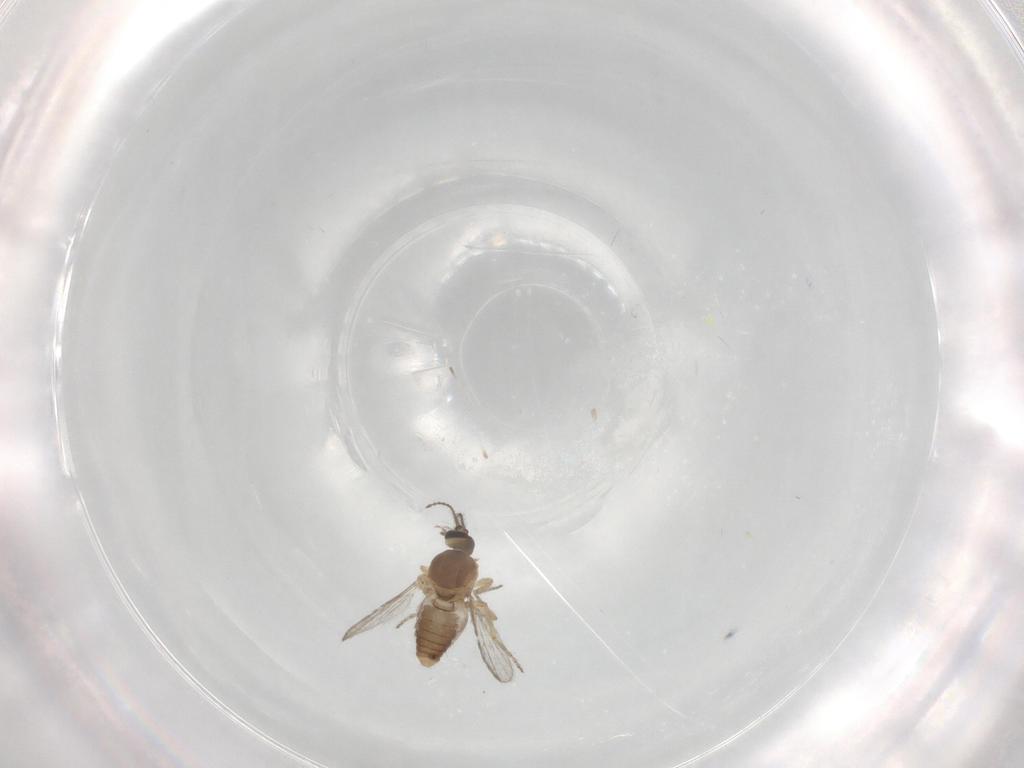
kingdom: Animalia
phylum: Arthropoda
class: Insecta
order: Diptera
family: Ceratopogonidae
